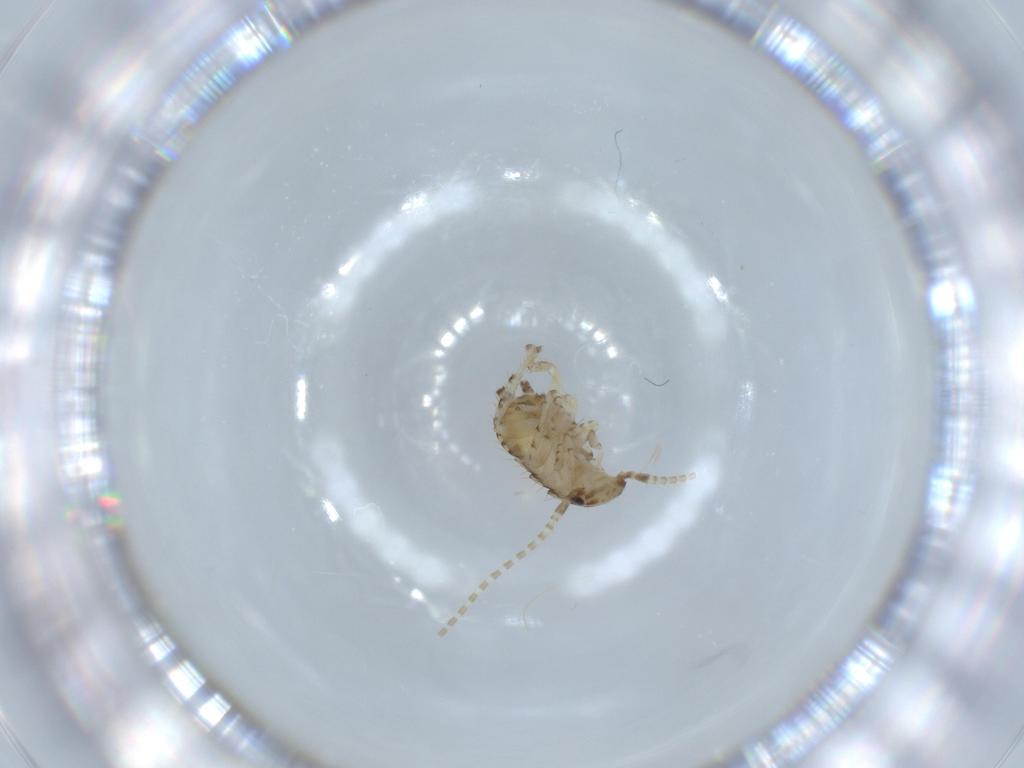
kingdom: Animalia
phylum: Arthropoda
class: Insecta
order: Blattodea
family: Ectobiidae
